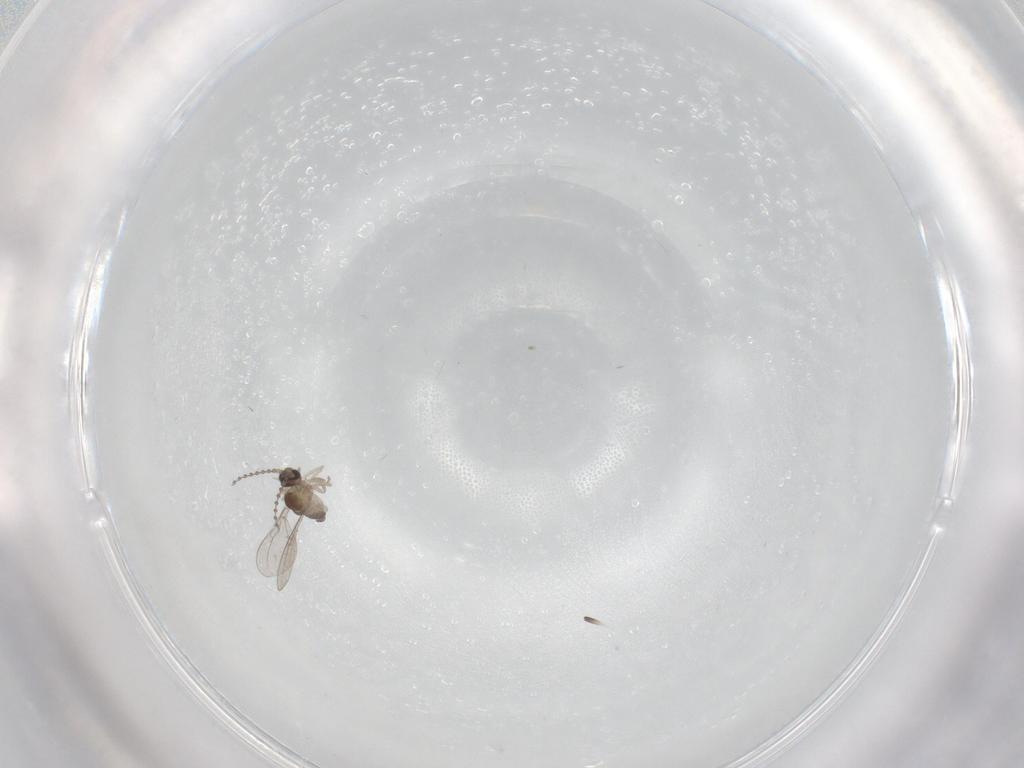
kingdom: Animalia
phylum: Arthropoda
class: Insecta
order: Diptera
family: Cecidomyiidae
